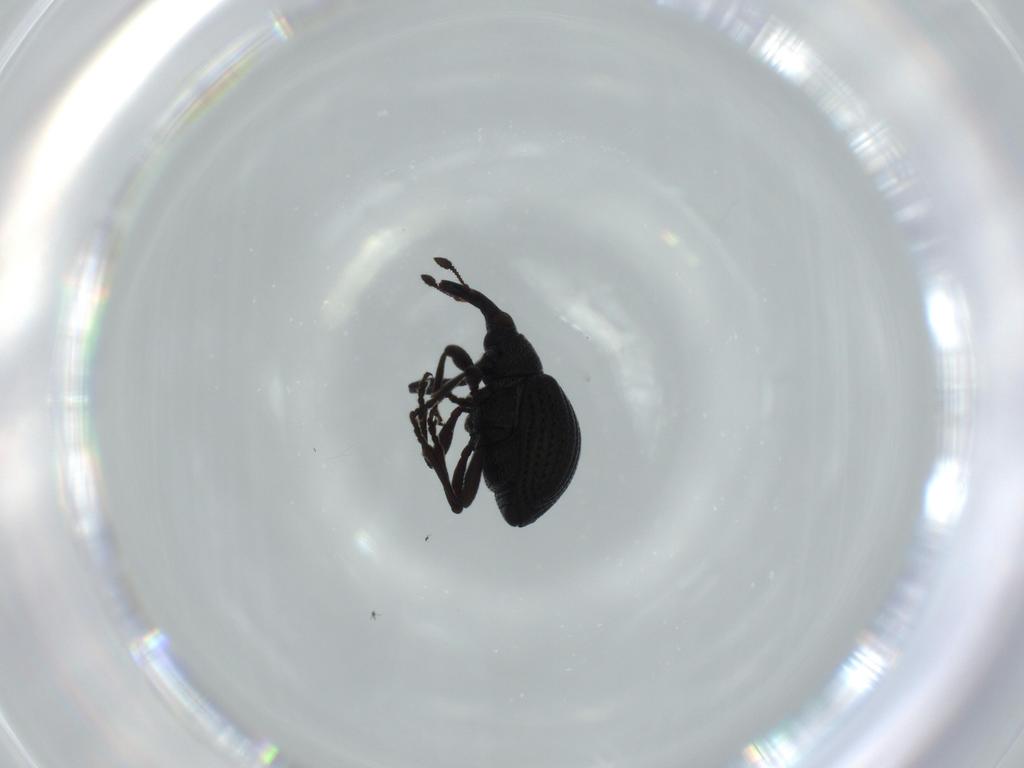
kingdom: Animalia
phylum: Arthropoda
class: Insecta
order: Coleoptera
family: Brentidae
